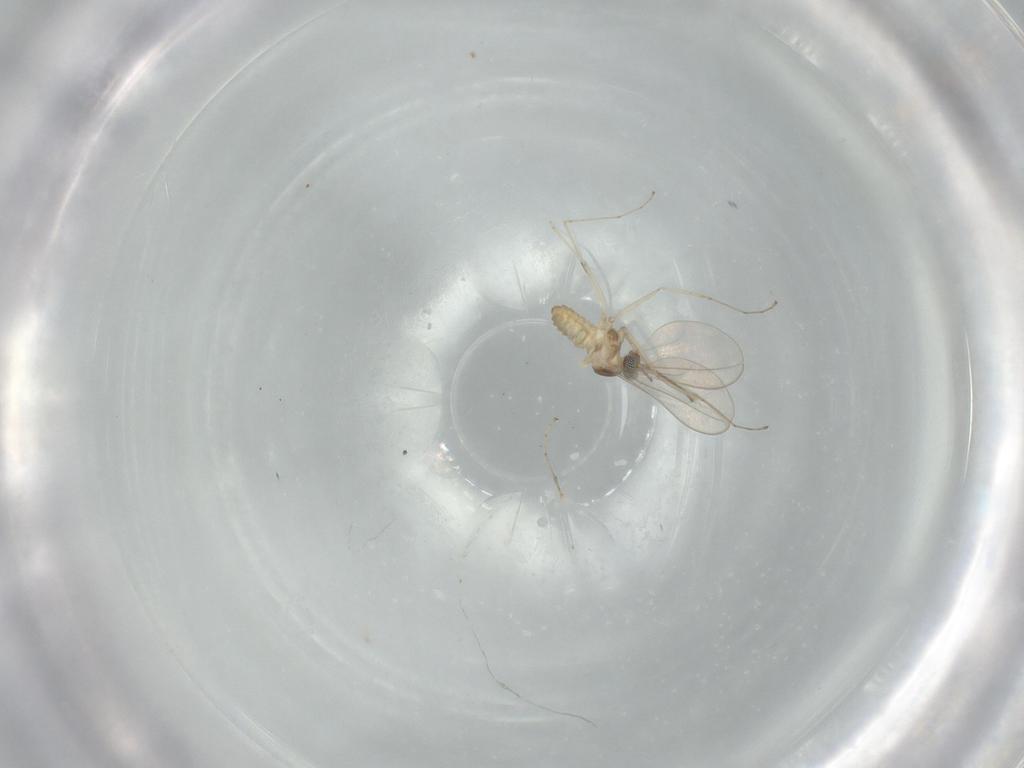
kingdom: Animalia
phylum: Arthropoda
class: Insecta
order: Diptera
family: Cecidomyiidae
